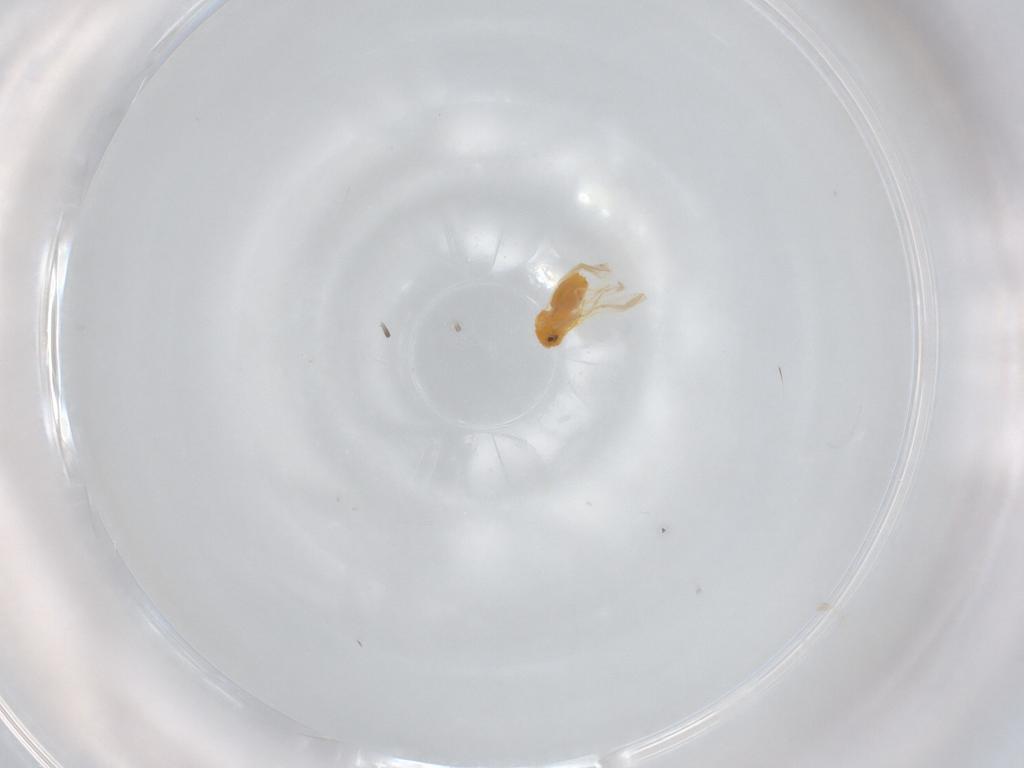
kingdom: Animalia
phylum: Arthropoda
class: Insecta
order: Hemiptera
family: Aleyrodidae
